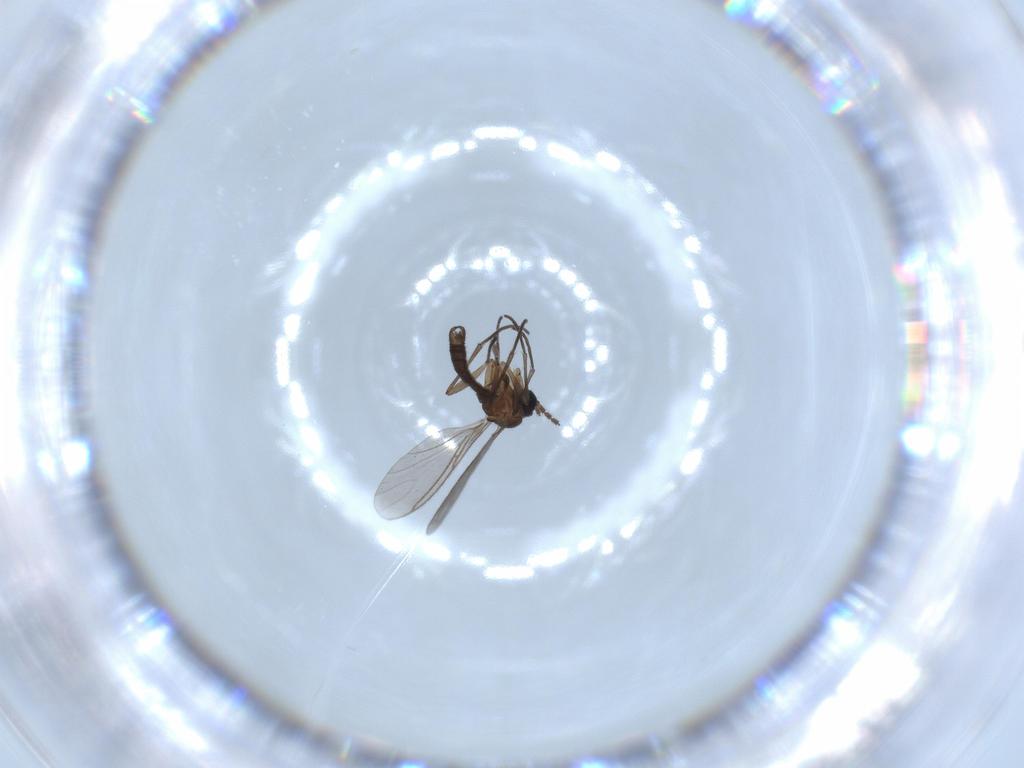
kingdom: Animalia
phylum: Arthropoda
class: Insecta
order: Diptera
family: Sciaridae
